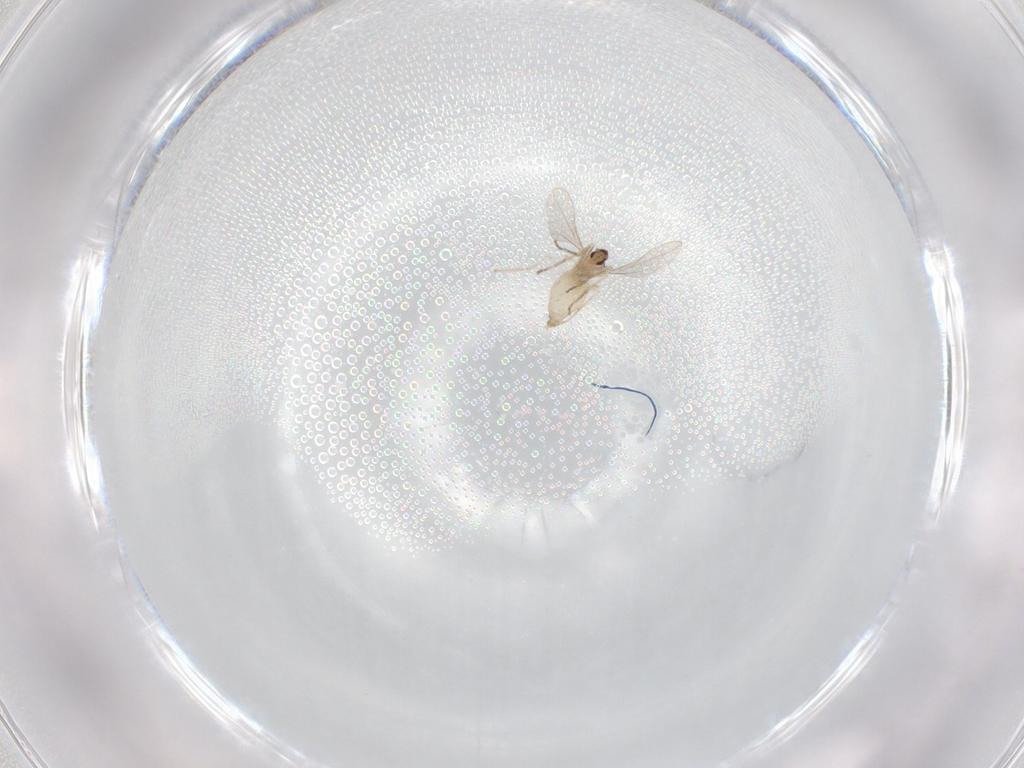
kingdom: Animalia
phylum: Arthropoda
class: Insecta
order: Diptera
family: Cecidomyiidae
